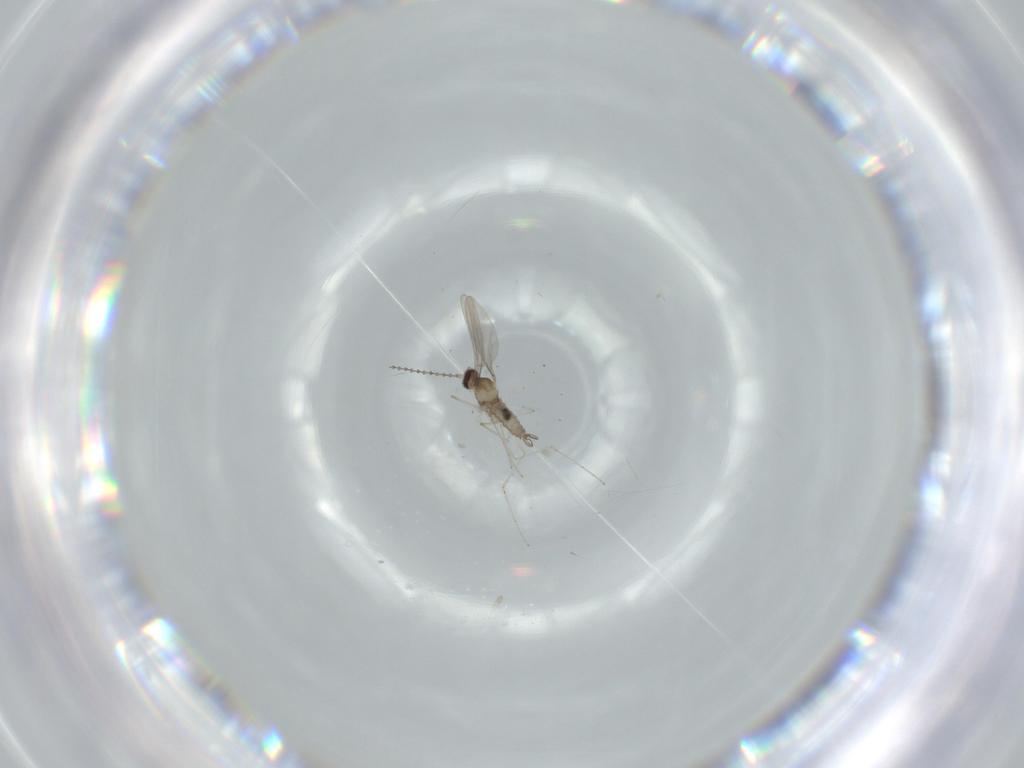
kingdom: Animalia
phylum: Arthropoda
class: Insecta
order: Diptera
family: Cecidomyiidae
